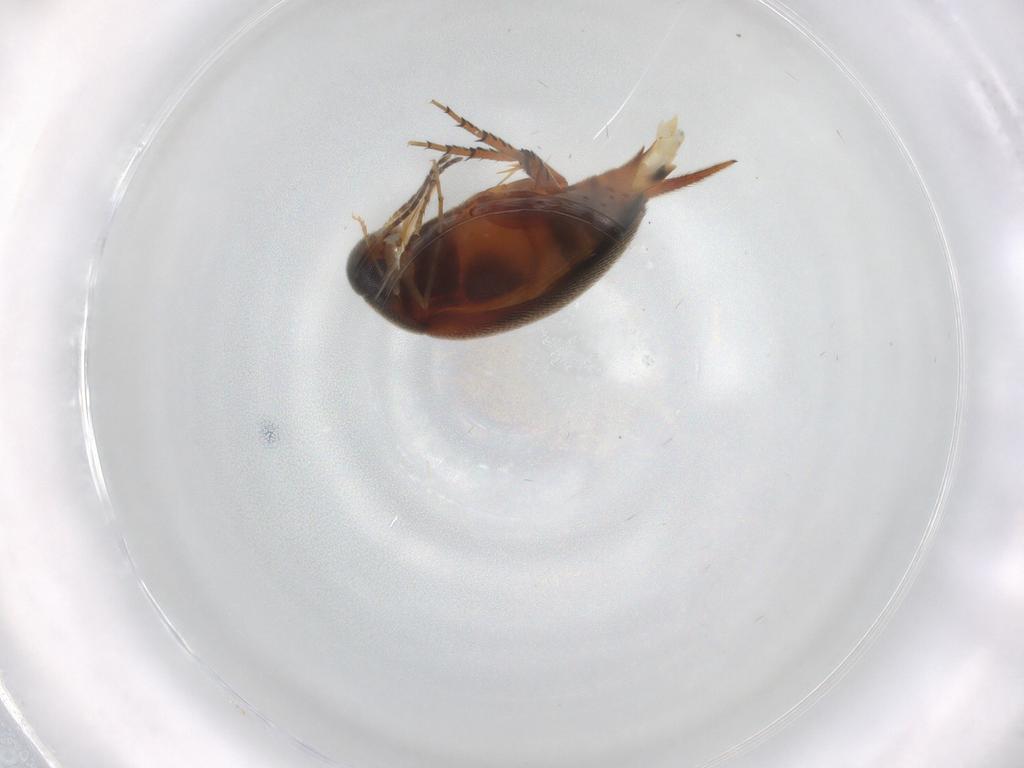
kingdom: Animalia
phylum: Arthropoda
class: Insecta
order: Coleoptera
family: Mordellidae
